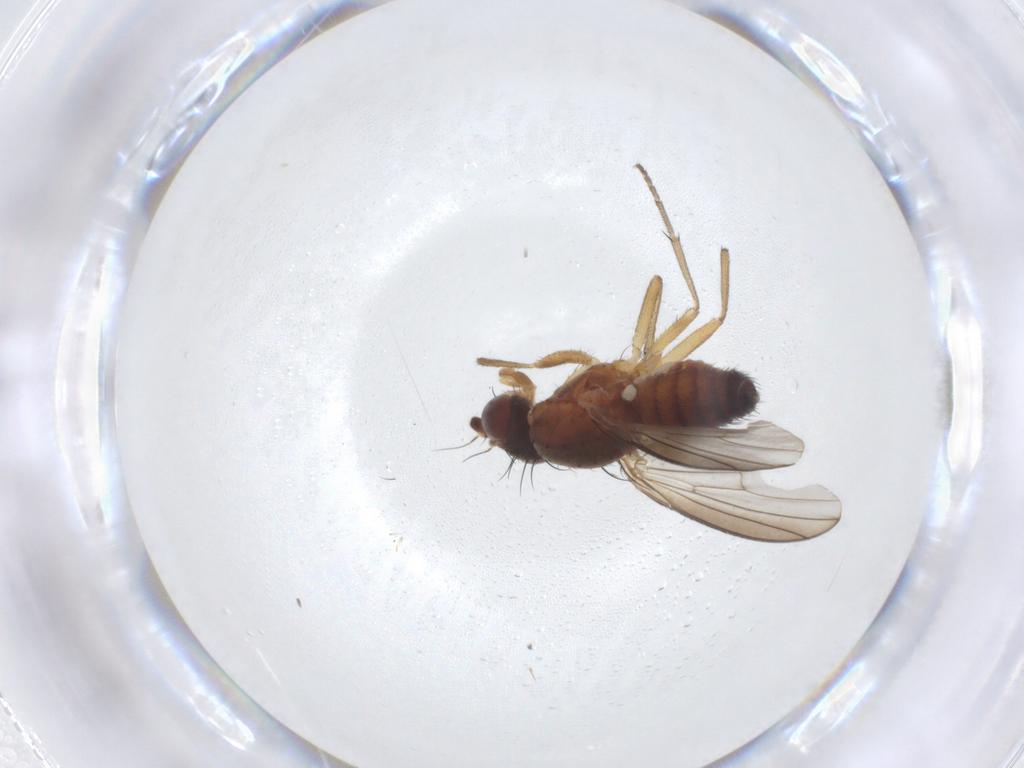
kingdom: Animalia
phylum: Arthropoda
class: Insecta
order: Diptera
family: Heleomyzidae
